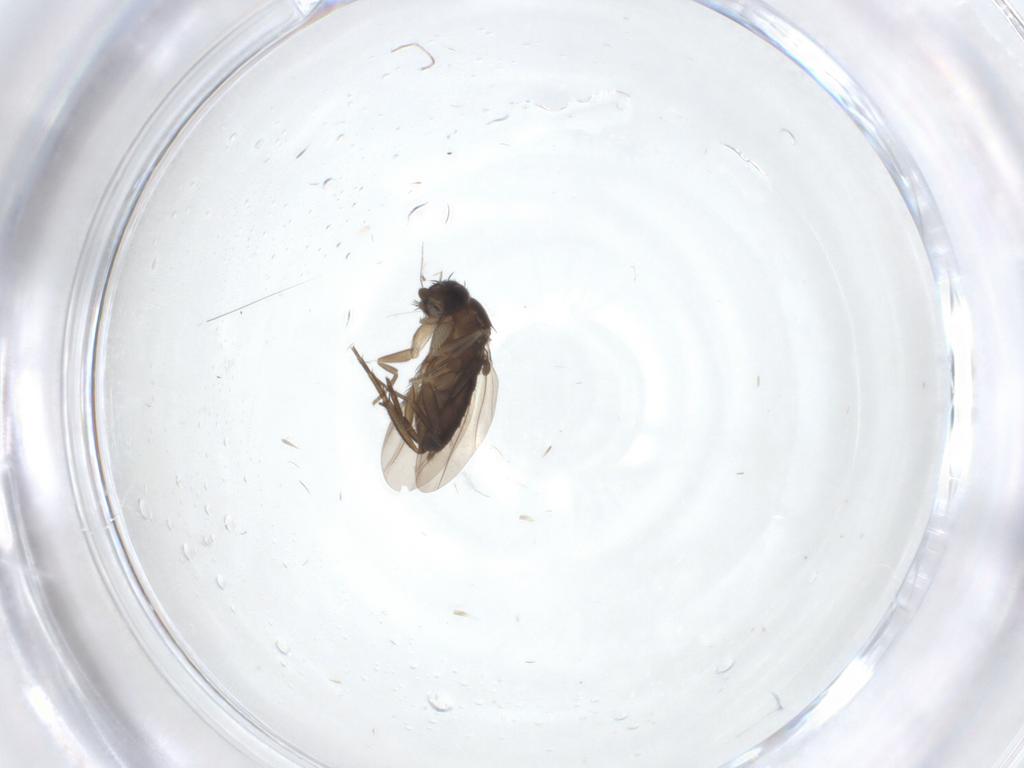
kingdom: Animalia
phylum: Arthropoda
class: Insecta
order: Diptera
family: Phoridae
